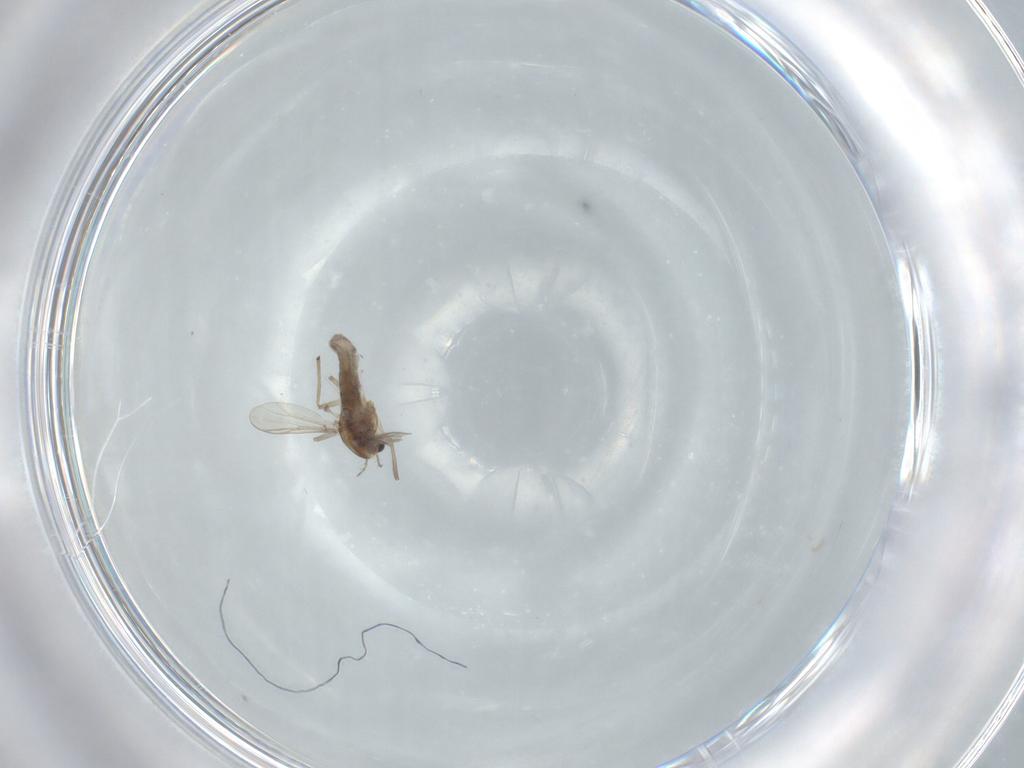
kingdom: Animalia
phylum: Arthropoda
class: Insecta
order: Diptera
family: Chironomidae
